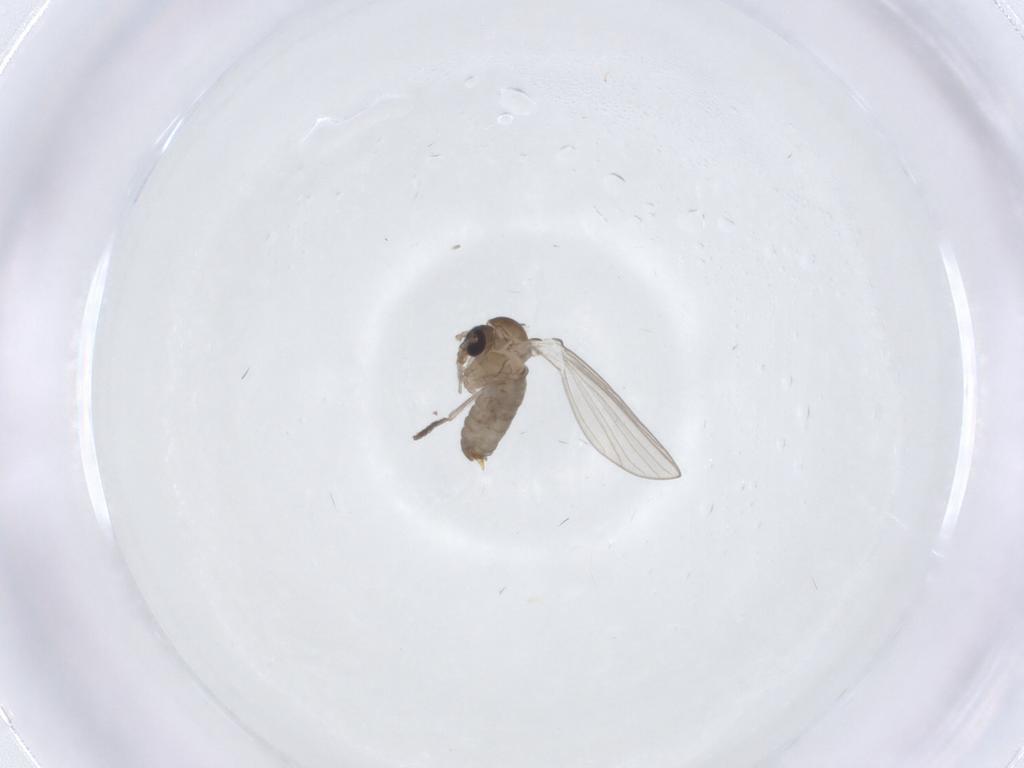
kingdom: Animalia
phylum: Arthropoda
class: Insecta
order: Diptera
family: Psychodidae
